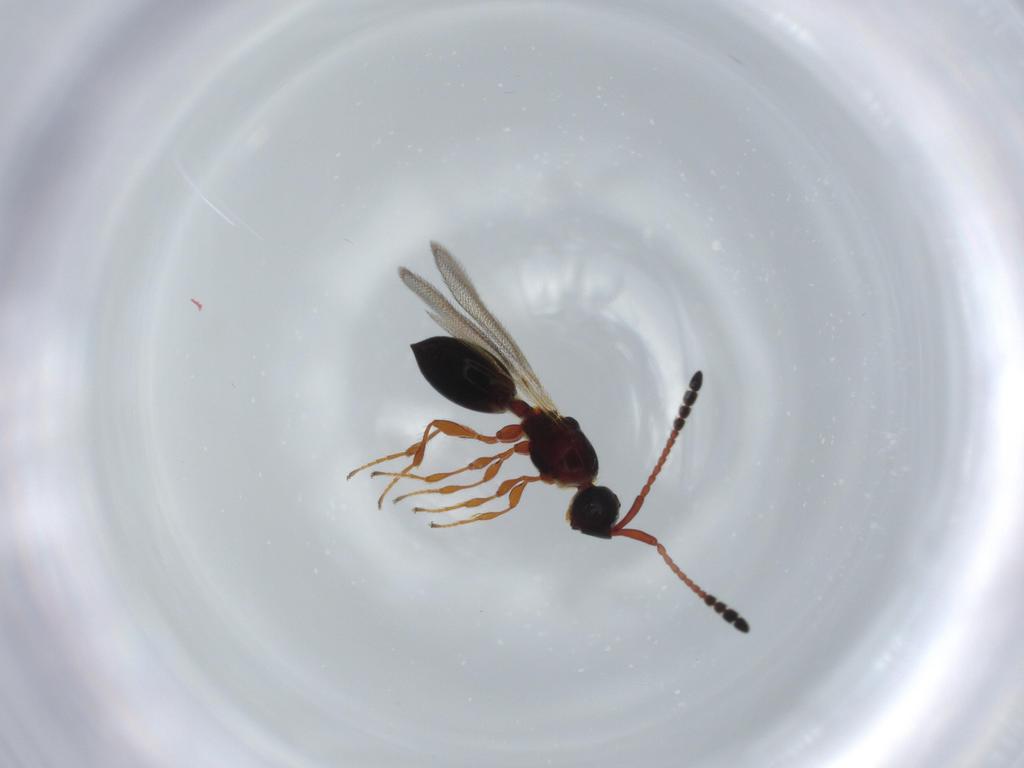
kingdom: Animalia
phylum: Arthropoda
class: Insecta
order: Hymenoptera
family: Diapriidae
